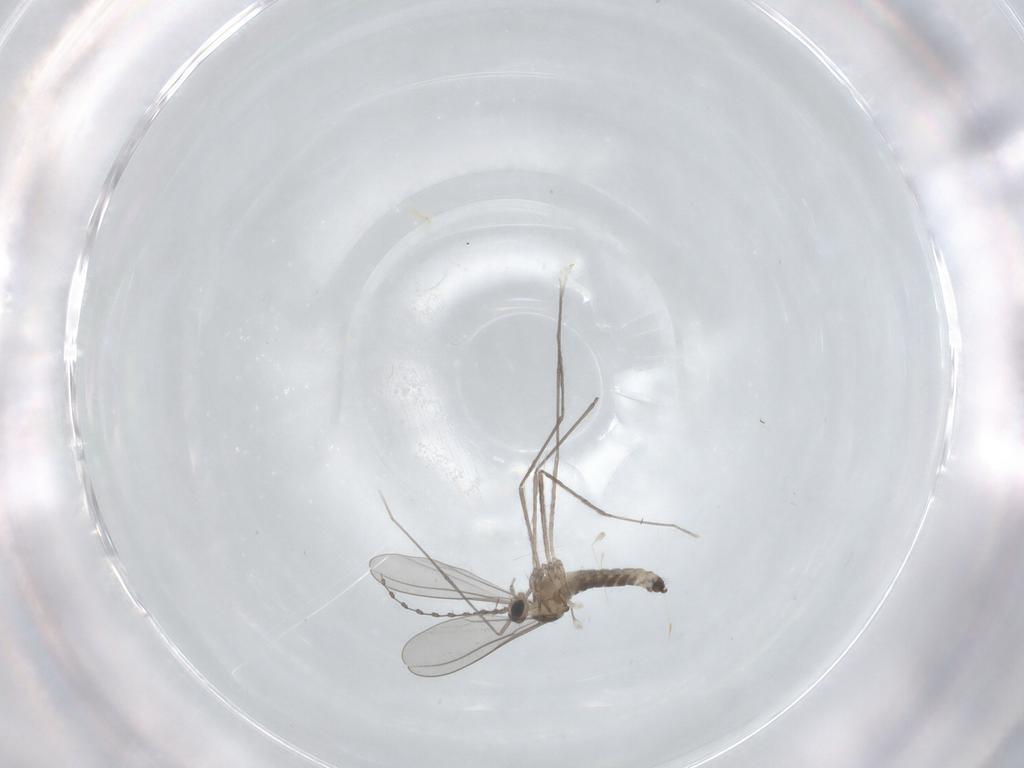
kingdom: Animalia
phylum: Arthropoda
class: Insecta
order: Diptera
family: Cecidomyiidae
